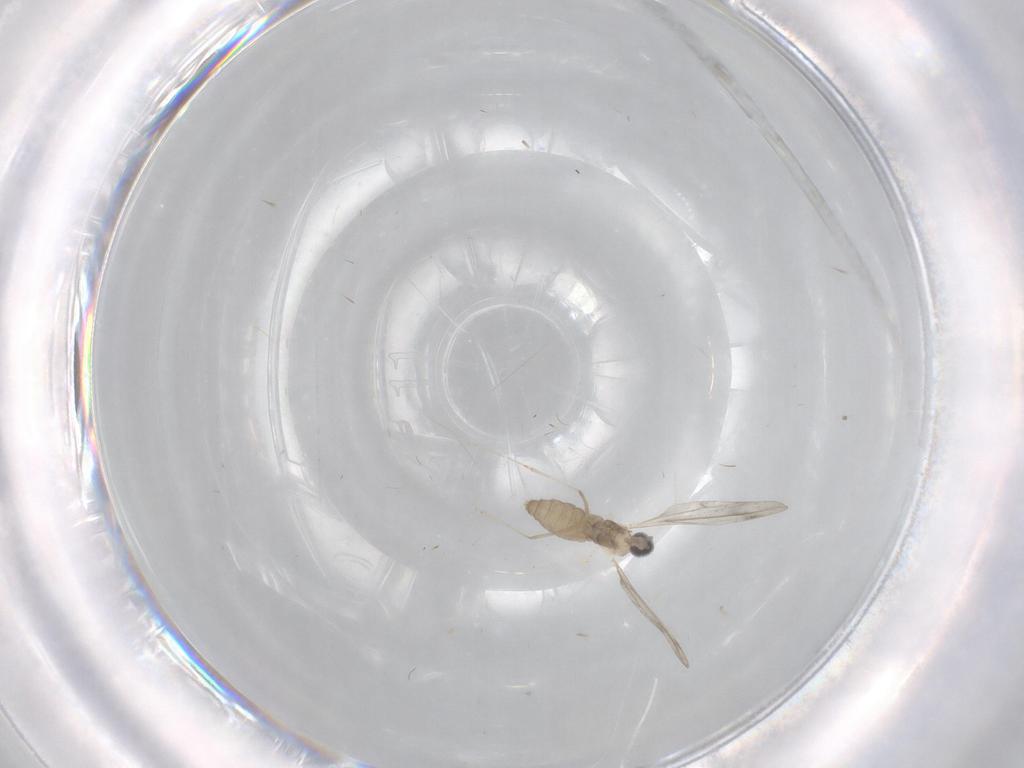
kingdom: Animalia
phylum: Arthropoda
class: Insecta
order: Diptera
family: Cecidomyiidae
